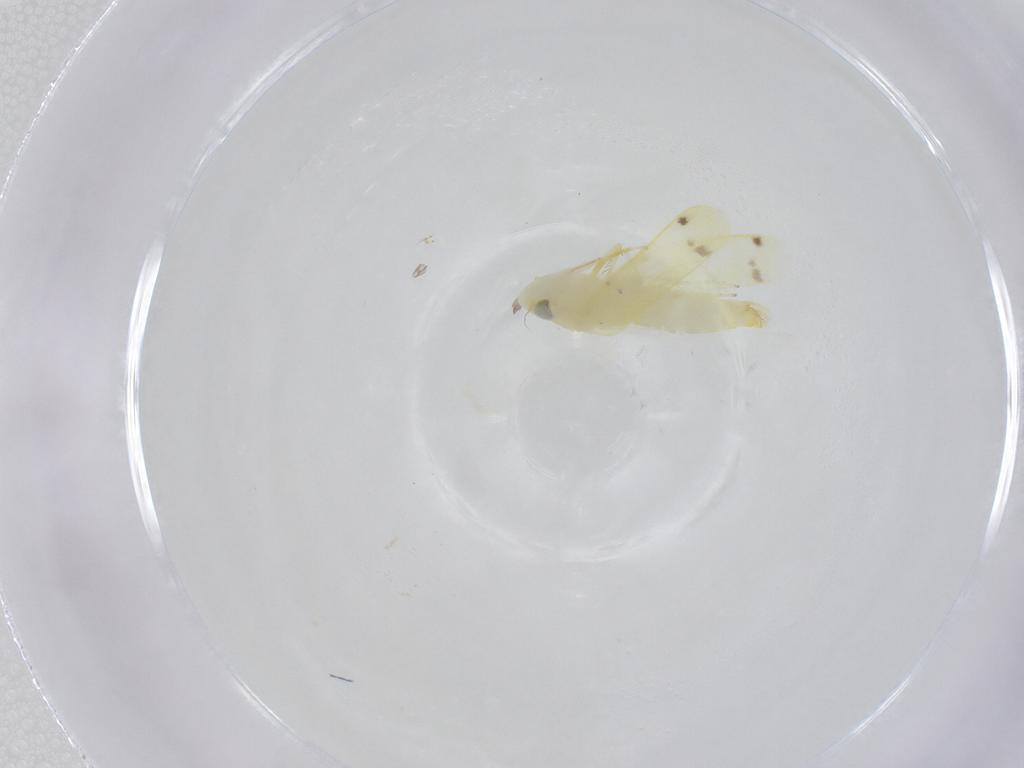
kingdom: Animalia
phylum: Arthropoda
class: Insecta
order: Hemiptera
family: Cicadellidae
